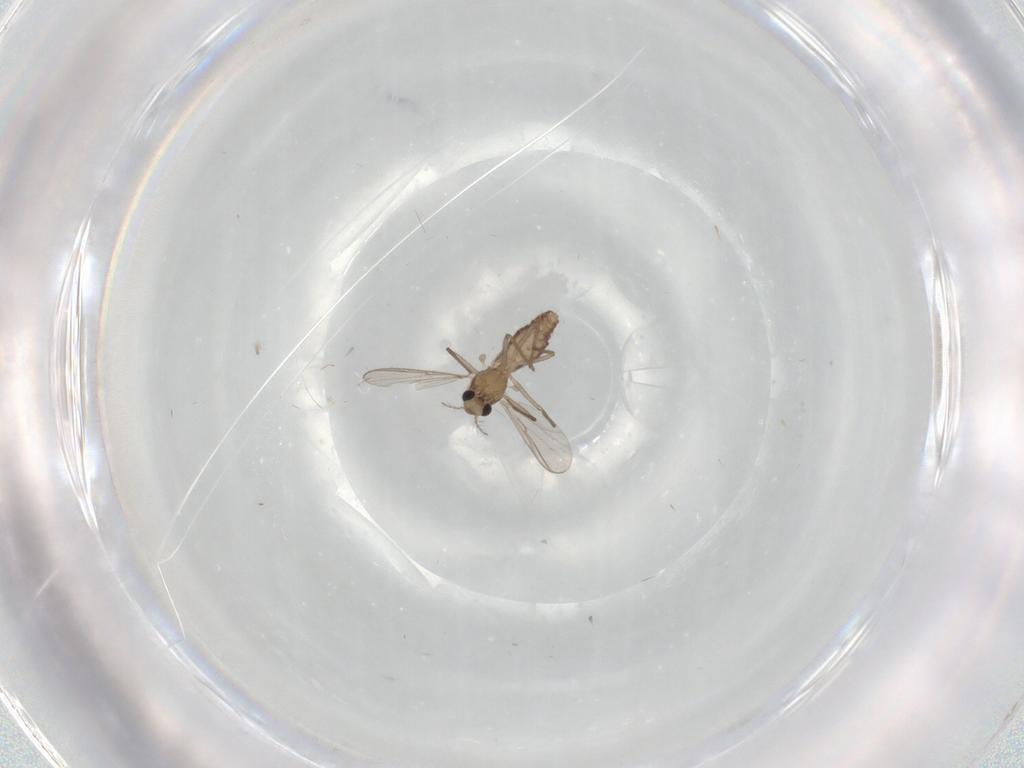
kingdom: Animalia
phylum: Arthropoda
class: Insecta
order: Diptera
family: Chironomidae
